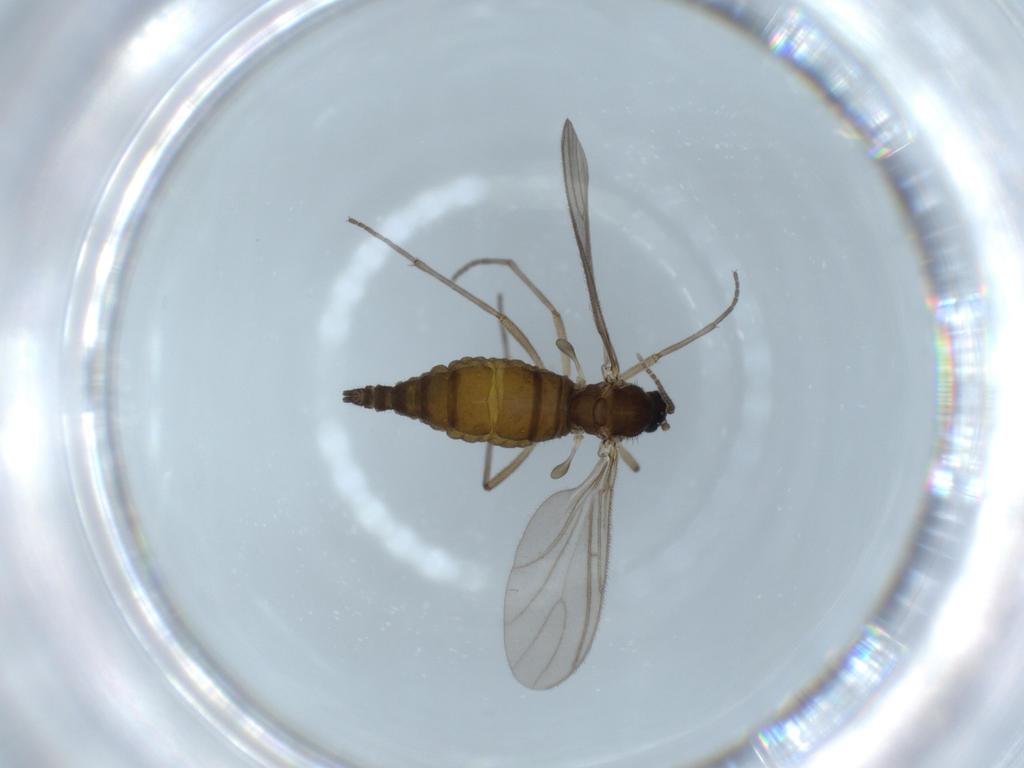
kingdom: Animalia
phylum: Arthropoda
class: Insecta
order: Diptera
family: Sciaridae
